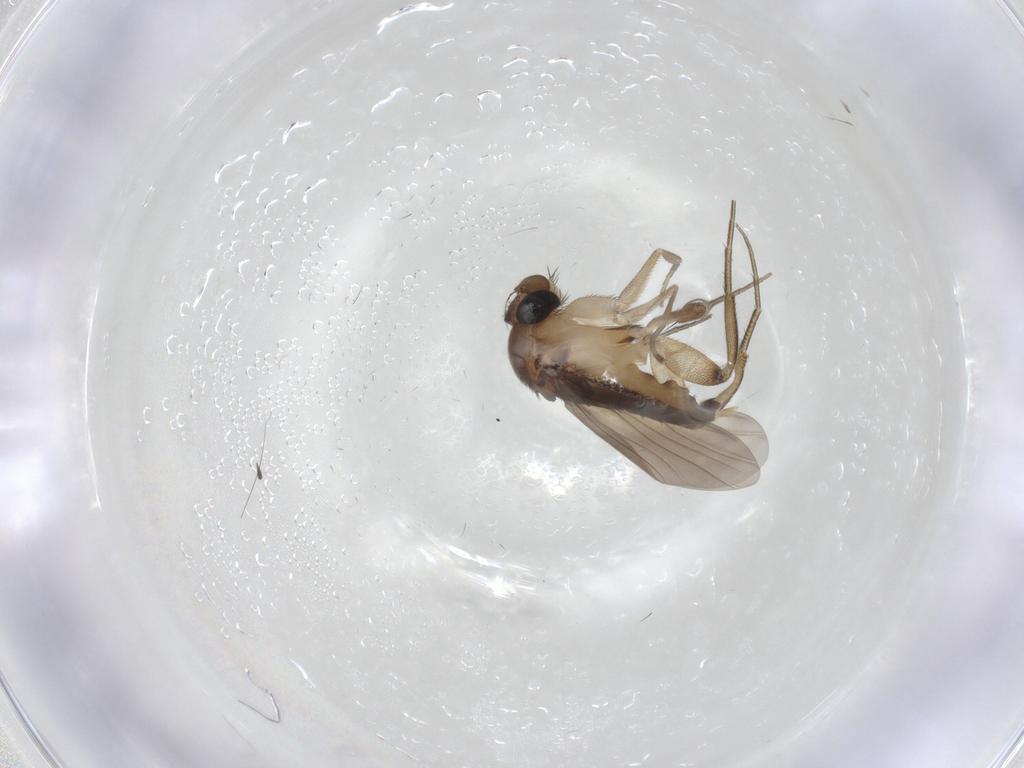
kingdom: Animalia
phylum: Arthropoda
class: Insecta
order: Diptera
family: Phoridae
